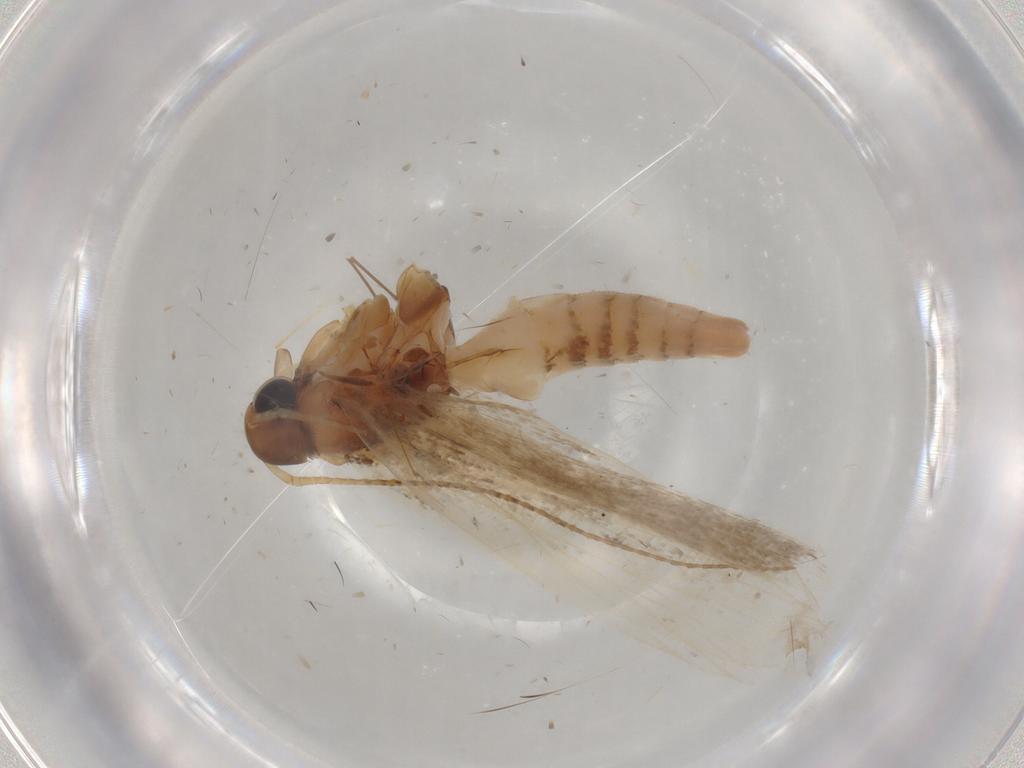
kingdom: Animalia
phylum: Arthropoda
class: Insecta
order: Lepidoptera
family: Gelechiidae
